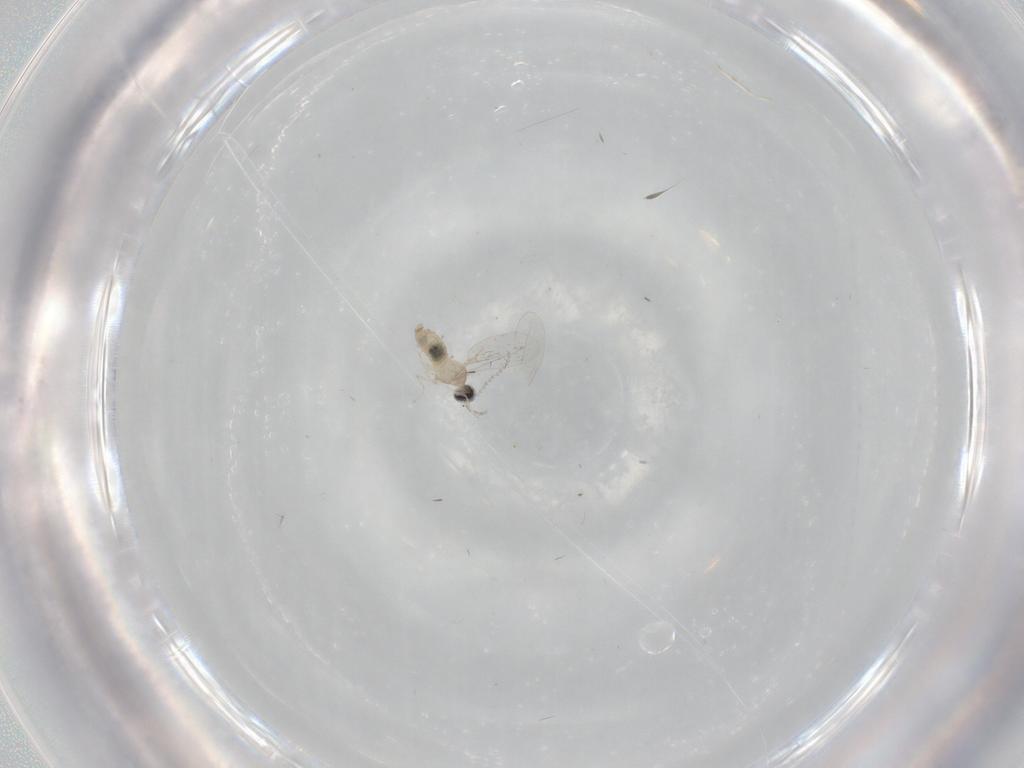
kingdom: Animalia
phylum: Arthropoda
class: Insecta
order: Diptera
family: Cecidomyiidae
